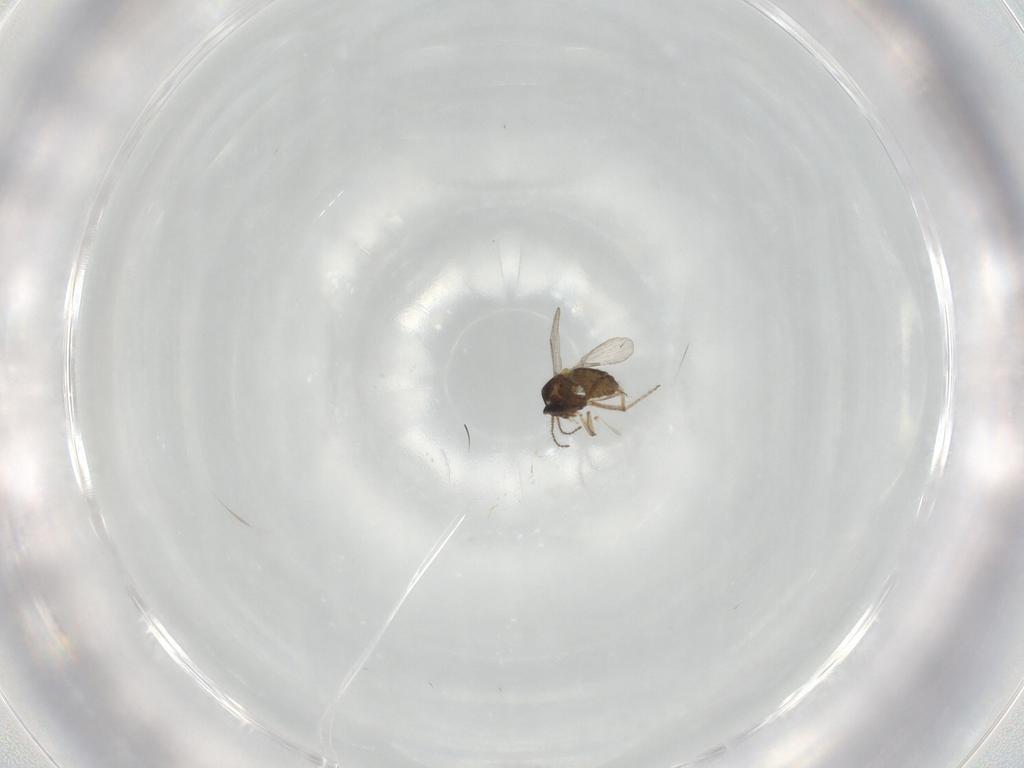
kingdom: Animalia
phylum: Arthropoda
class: Insecta
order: Diptera
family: Ceratopogonidae
